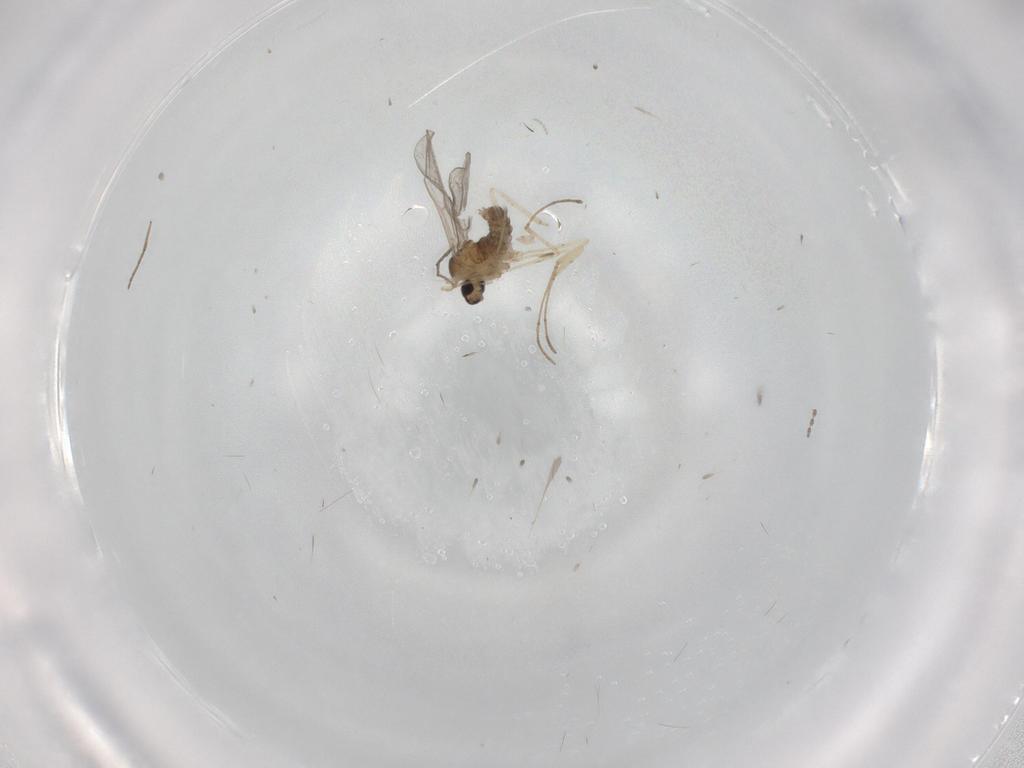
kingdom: Animalia
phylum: Arthropoda
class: Insecta
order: Diptera
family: Cecidomyiidae
